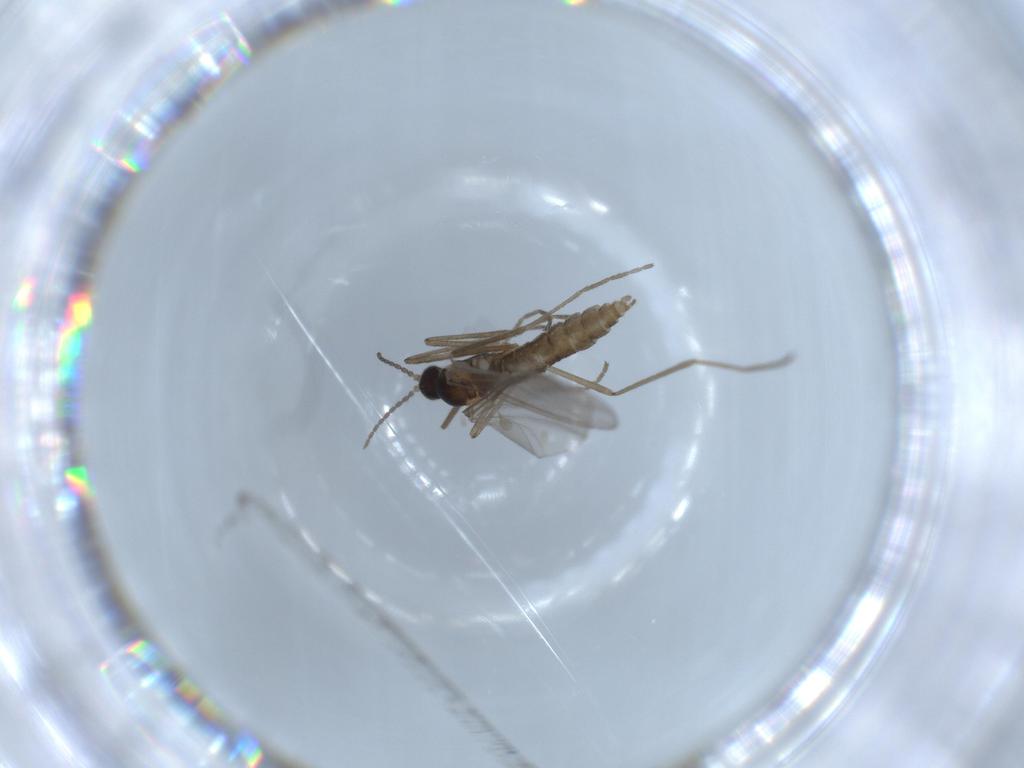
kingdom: Animalia
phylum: Arthropoda
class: Insecta
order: Diptera
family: Cecidomyiidae
